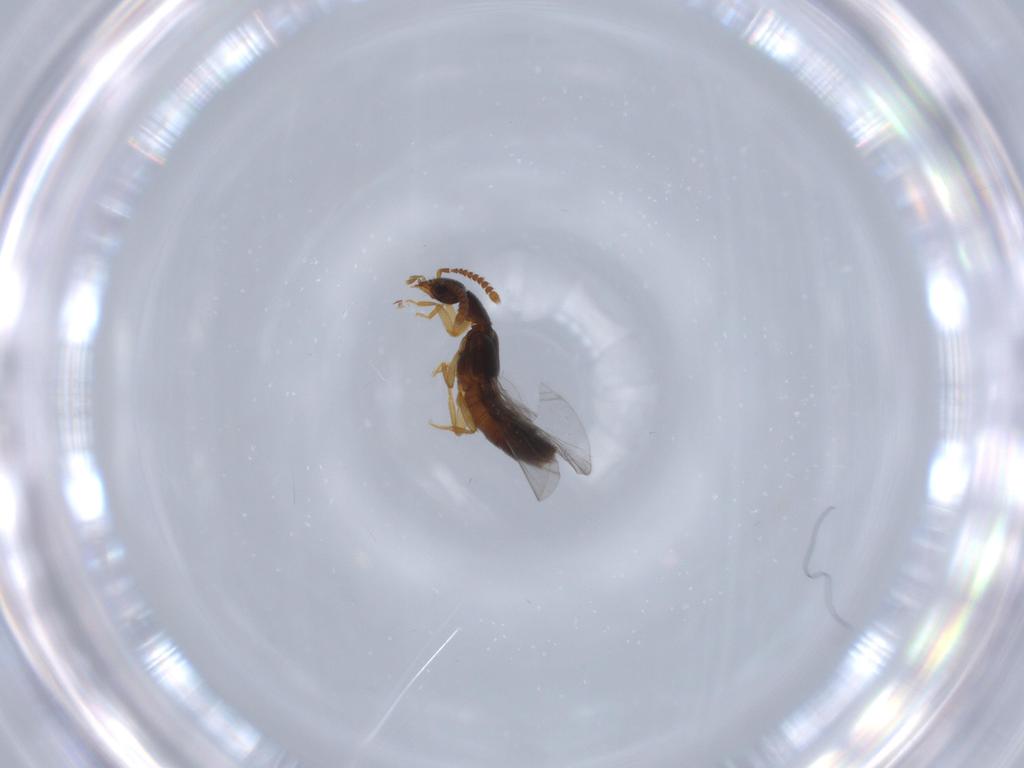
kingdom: Animalia
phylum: Arthropoda
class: Insecta
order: Coleoptera
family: Staphylinidae
